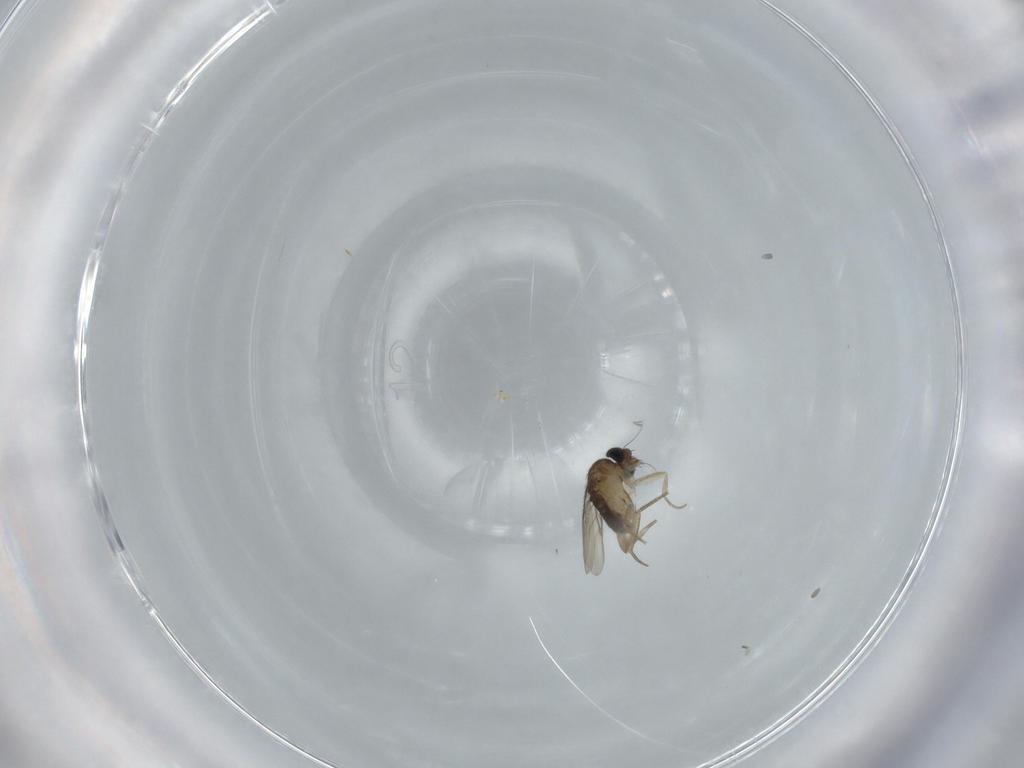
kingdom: Animalia
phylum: Arthropoda
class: Insecta
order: Diptera
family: Phoridae
